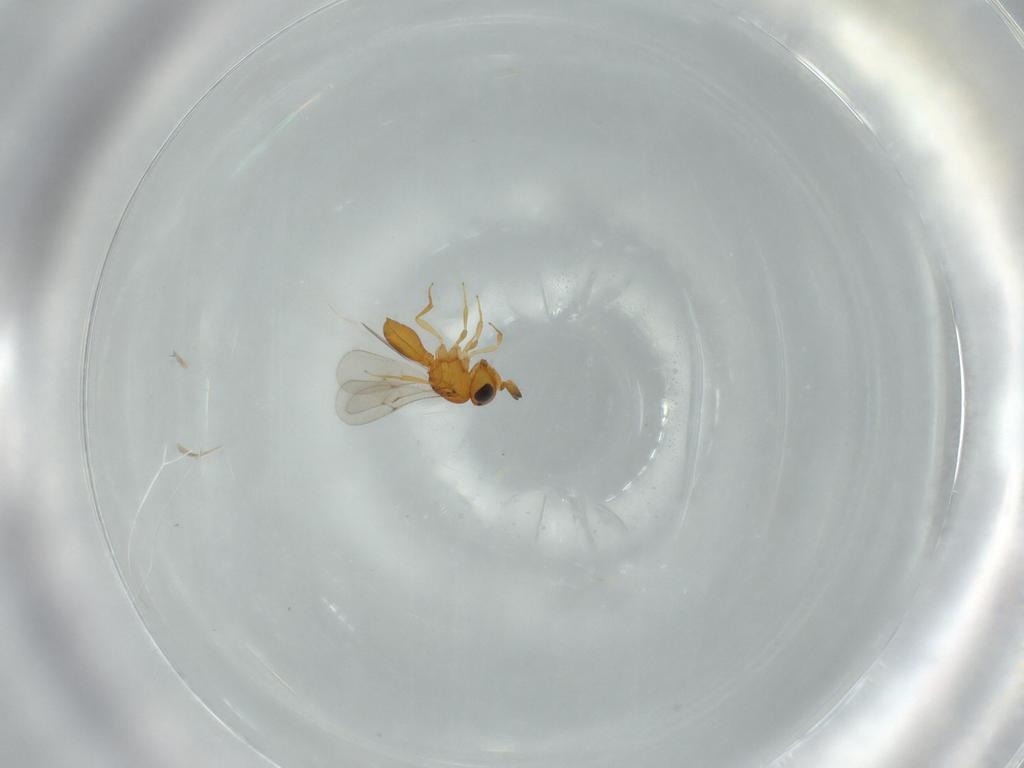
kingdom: Animalia
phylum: Arthropoda
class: Insecta
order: Hymenoptera
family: Scelionidae
